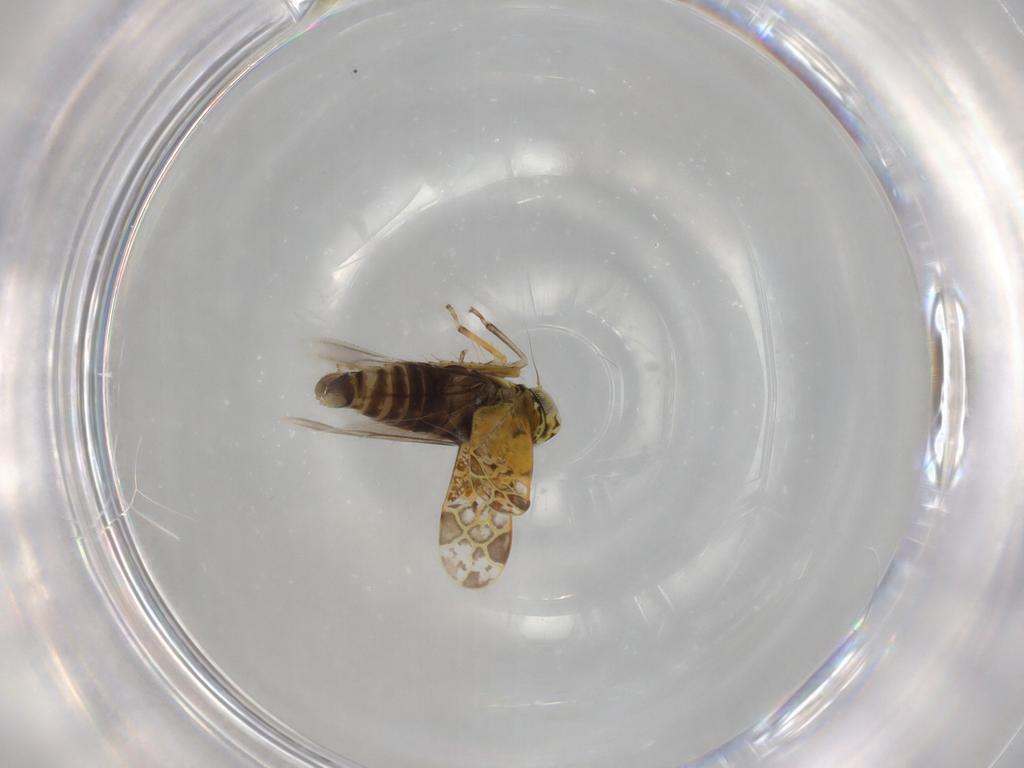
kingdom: Animalia
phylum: Arthropoda
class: Insecta
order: Hemiptera
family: Cicadellidae
